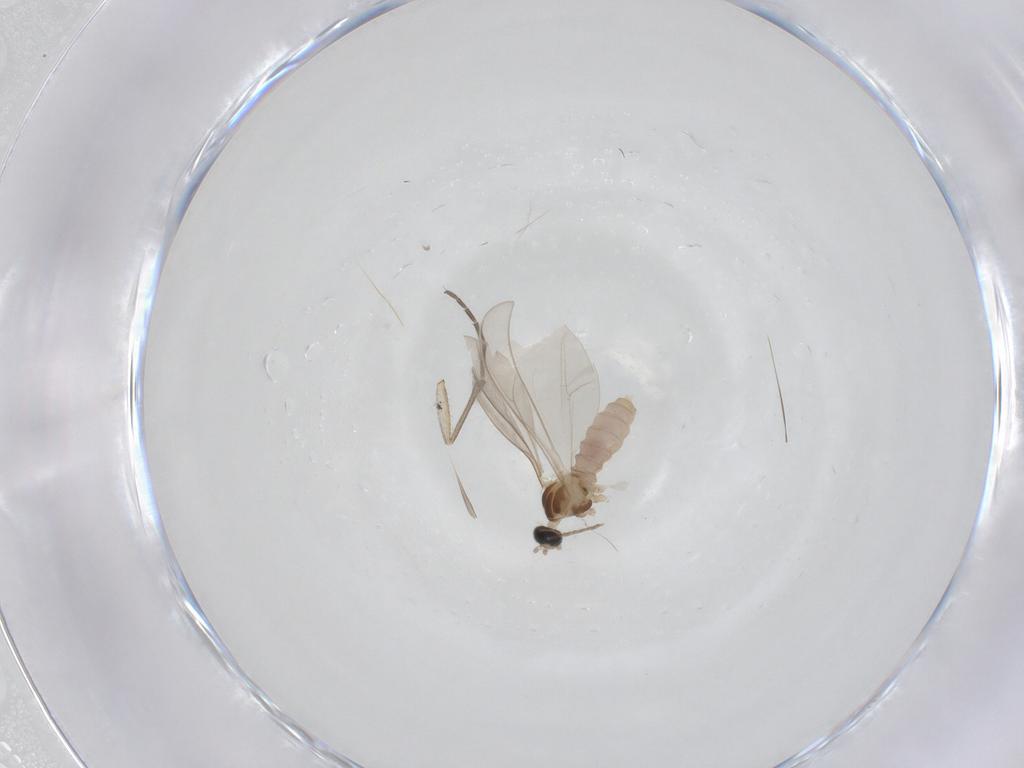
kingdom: Animalia
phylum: Arthropoda
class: Insecta
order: Diptera
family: Cecidomyiidae
